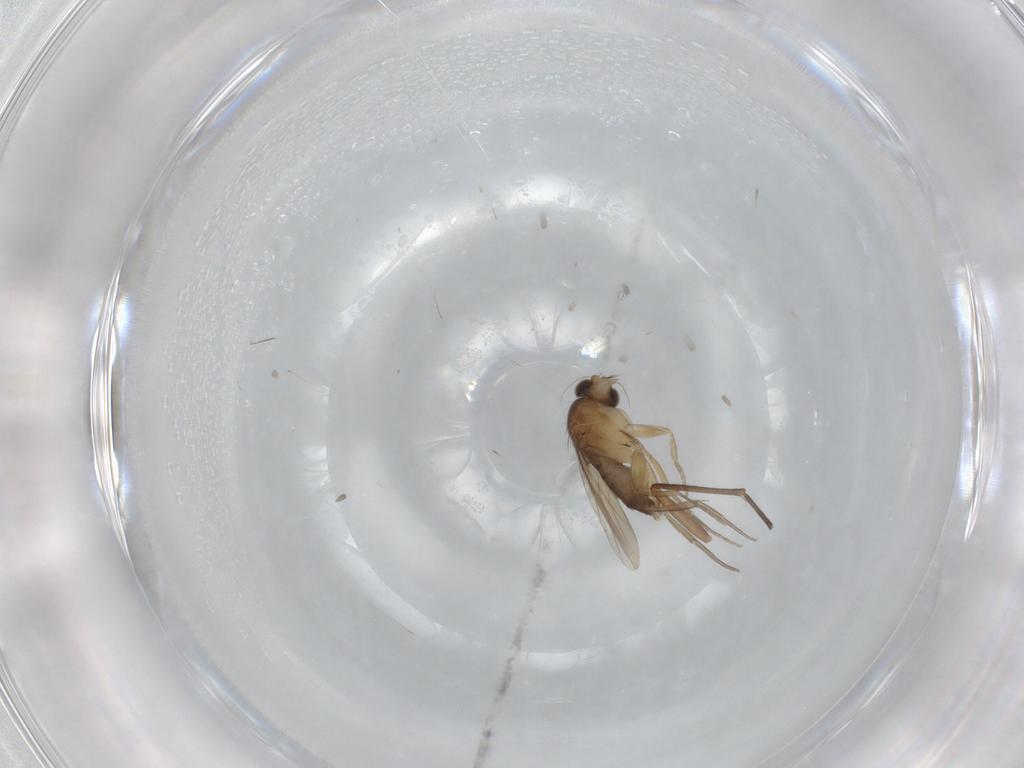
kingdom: Animalia
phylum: Arthropoda
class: Insecta
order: Diptera
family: Phoridae
